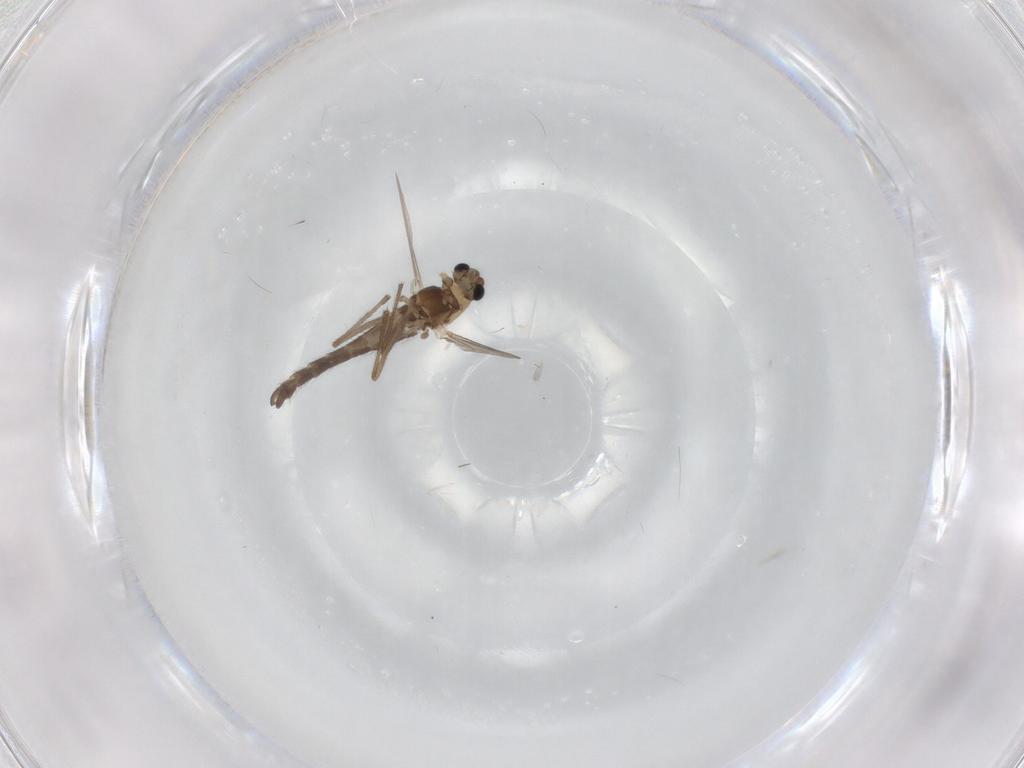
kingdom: Animalia
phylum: Arthropoda
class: Insecta
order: Diptera
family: Chironomidae
